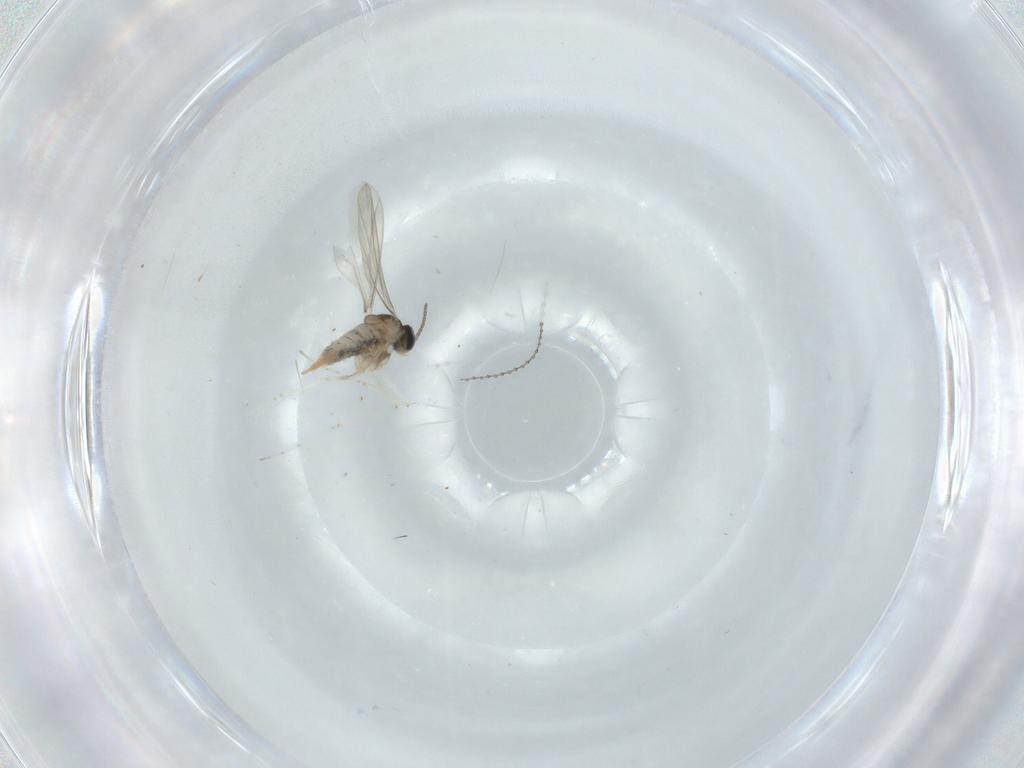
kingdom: Animalia
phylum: Arthropoda
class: Insecta
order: Diptera
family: Cecidomyiidae
